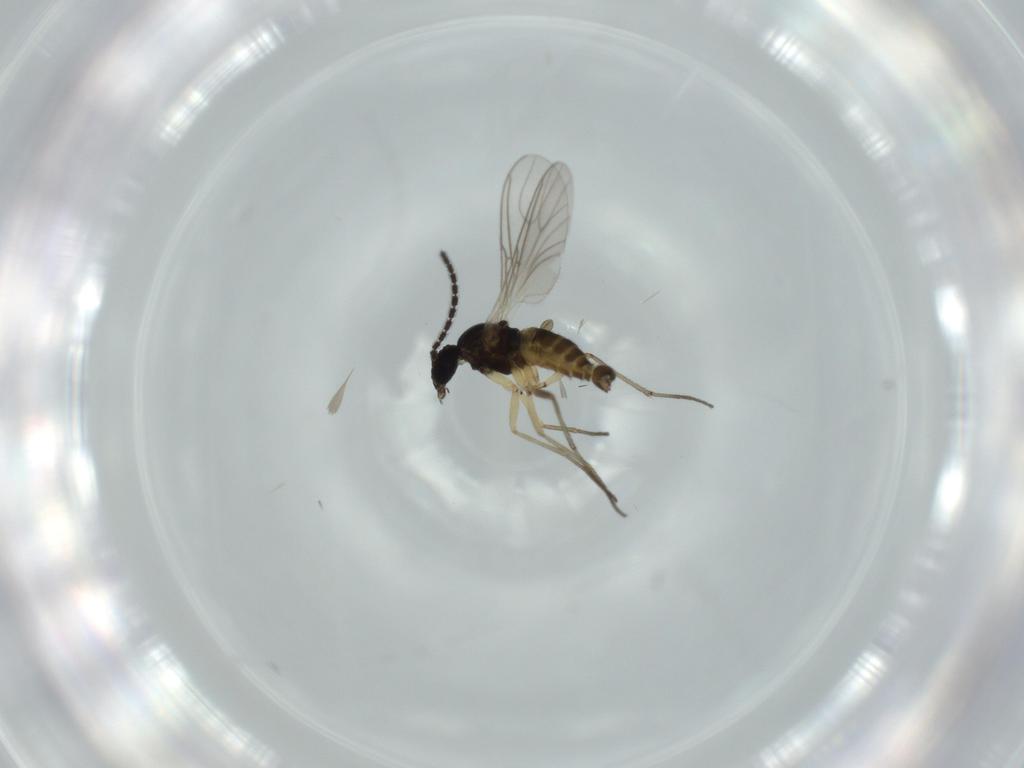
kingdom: Animalia
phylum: Arthropoda
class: Insecta
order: Diptera
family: Sciaridae
